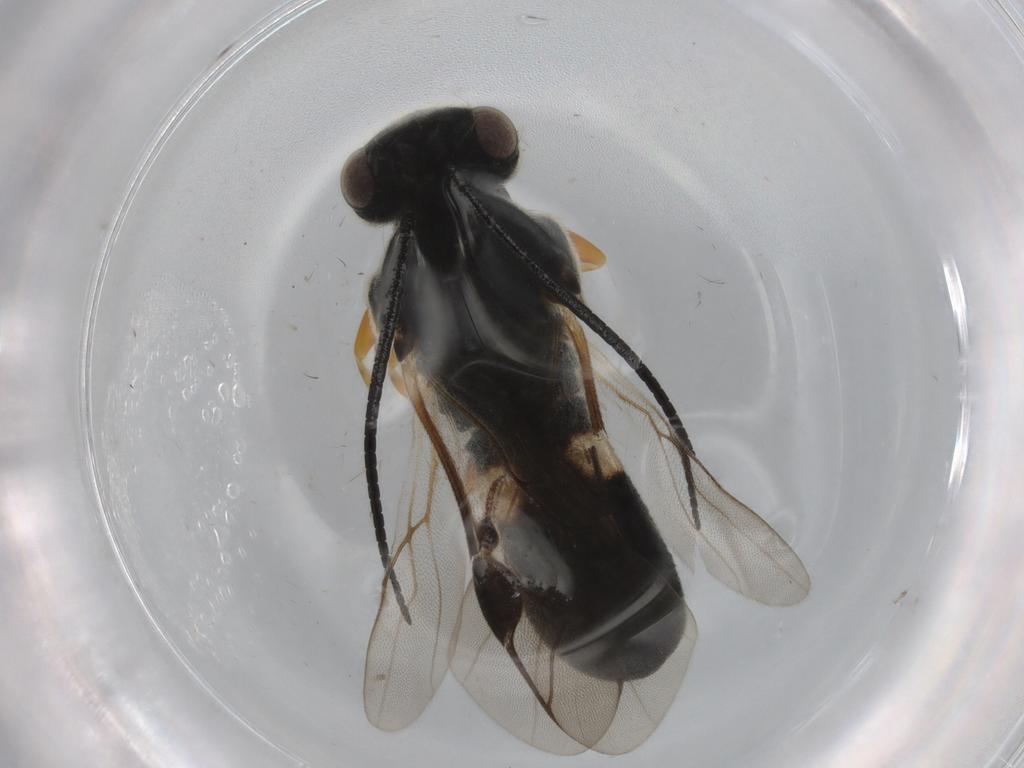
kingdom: Animalia
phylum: Arthropoda
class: Insecta
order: Hymenoptera
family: Braconidae
